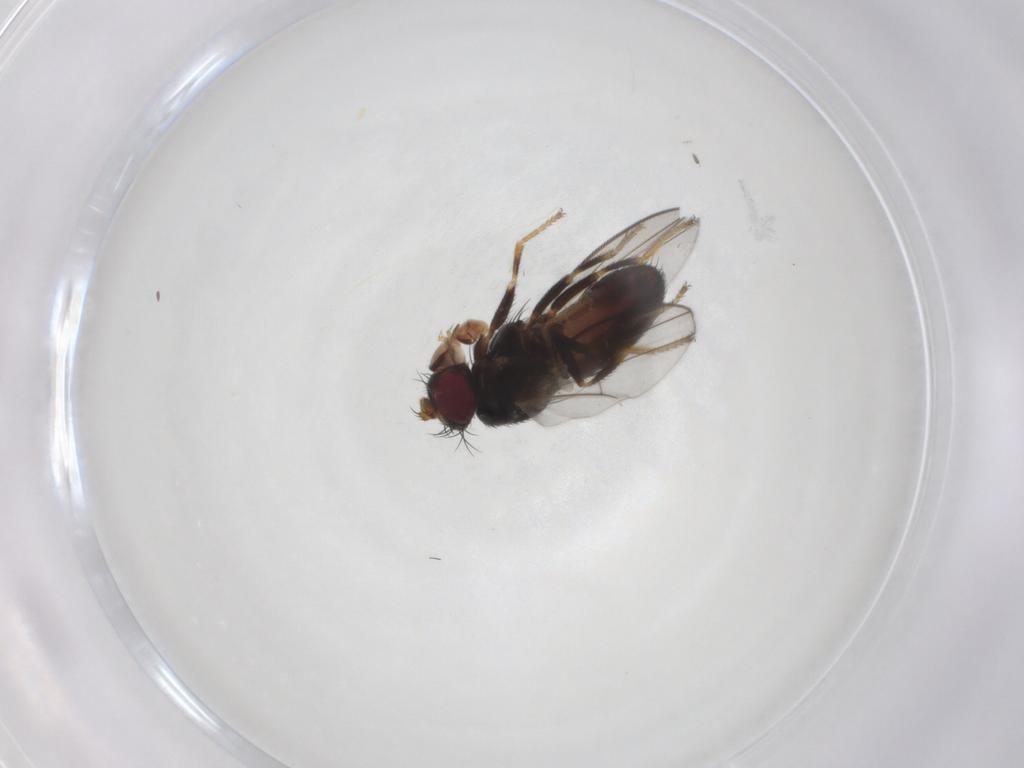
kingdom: Animalia
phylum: Arthropoda
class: Insecta
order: Diptera
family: Ephydridae
